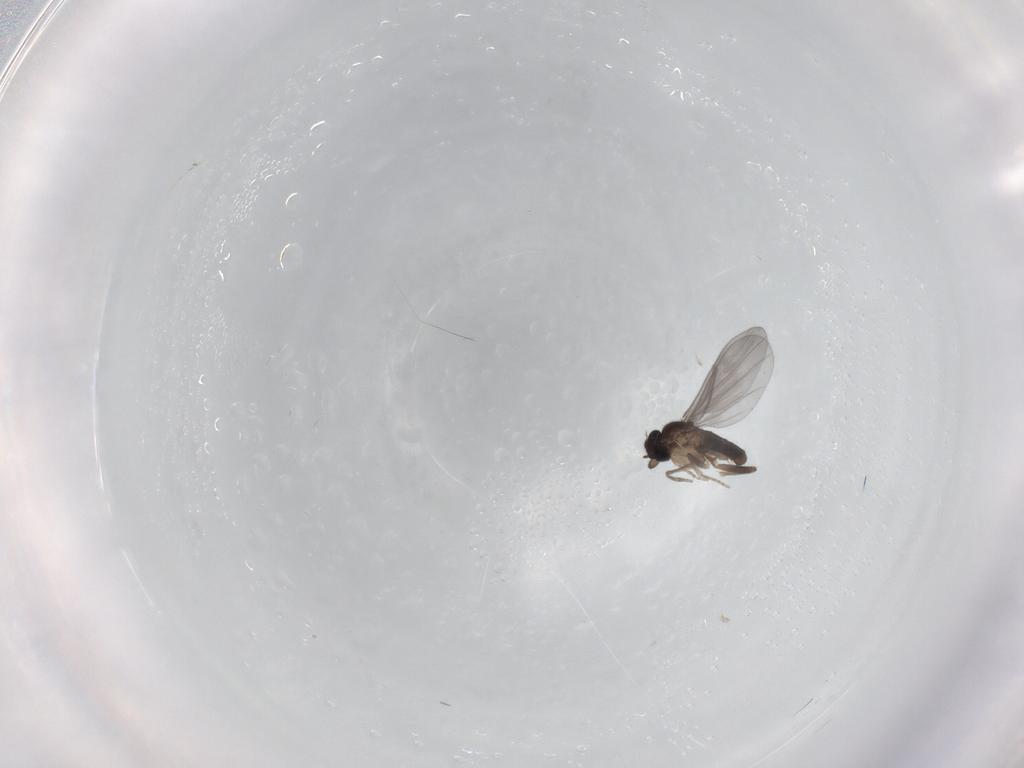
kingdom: Animalia
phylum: Arthropoda
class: Insecta
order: Diptera
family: Phoridae
